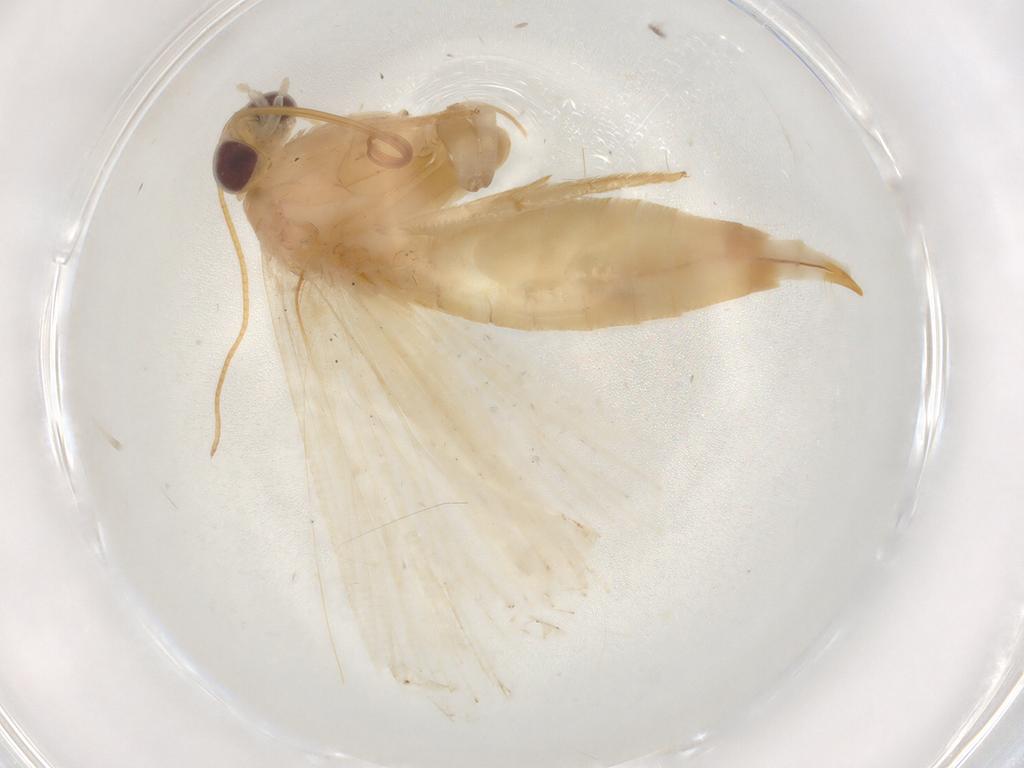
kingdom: Animalia
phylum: Arthropoda
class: Insecta
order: Lepidoptera
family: Noctuidae
